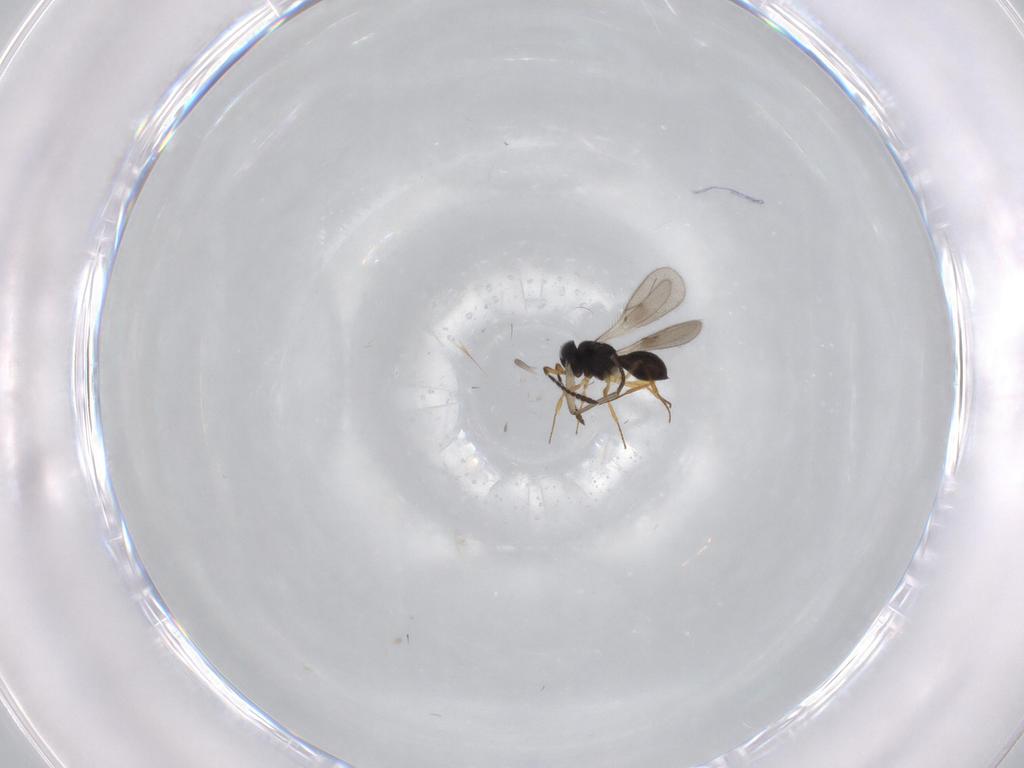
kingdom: Animalia
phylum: Arthropoda
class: Insecta
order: Hymenoptera
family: Scelionidae
